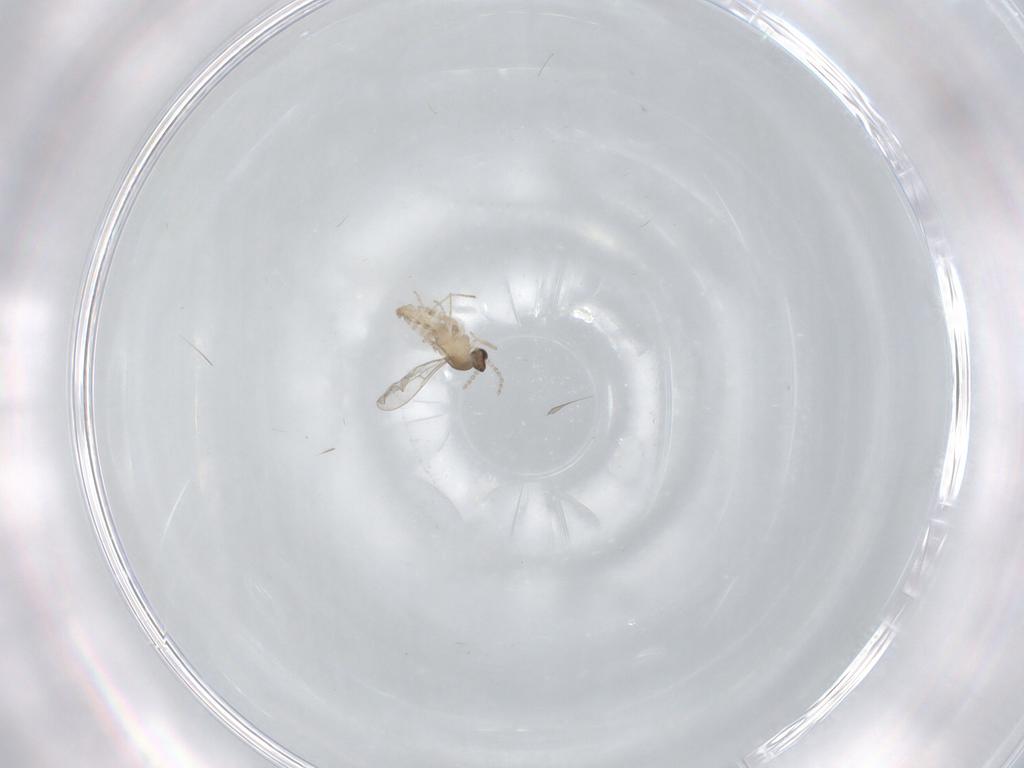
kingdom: Animalia
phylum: Arthropoda
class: Insecta
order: Diptera
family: Cecidomyiidae
